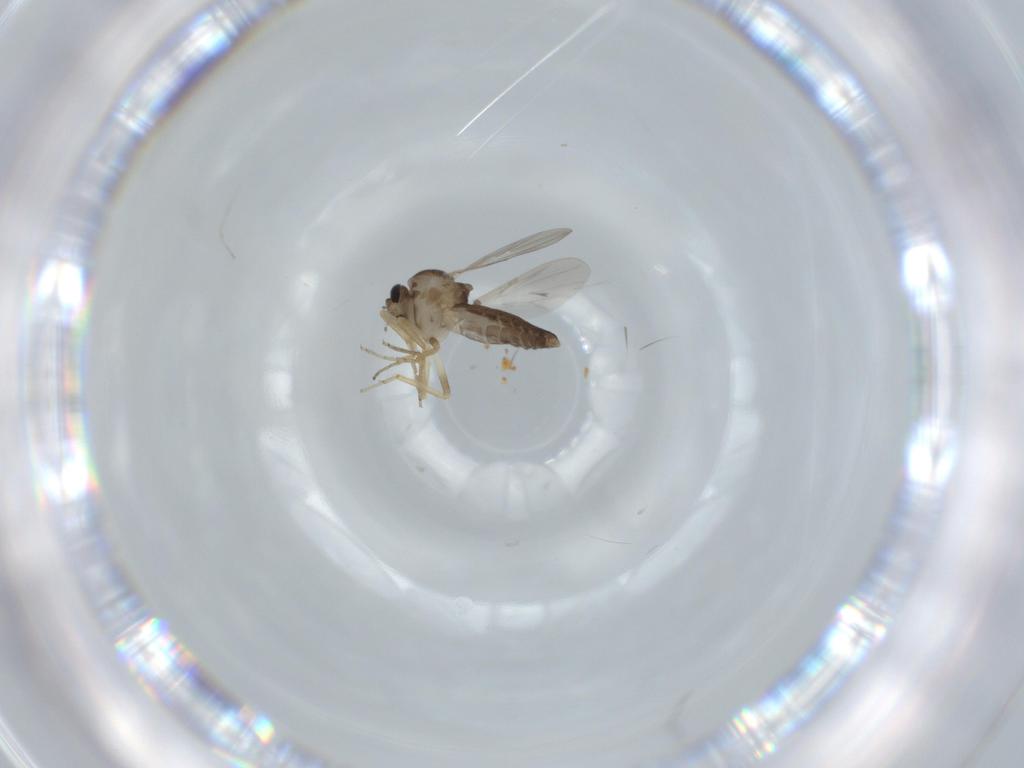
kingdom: Animalia
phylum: Arthropoda
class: Insecta
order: Diptera
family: Ceratopogonidae
